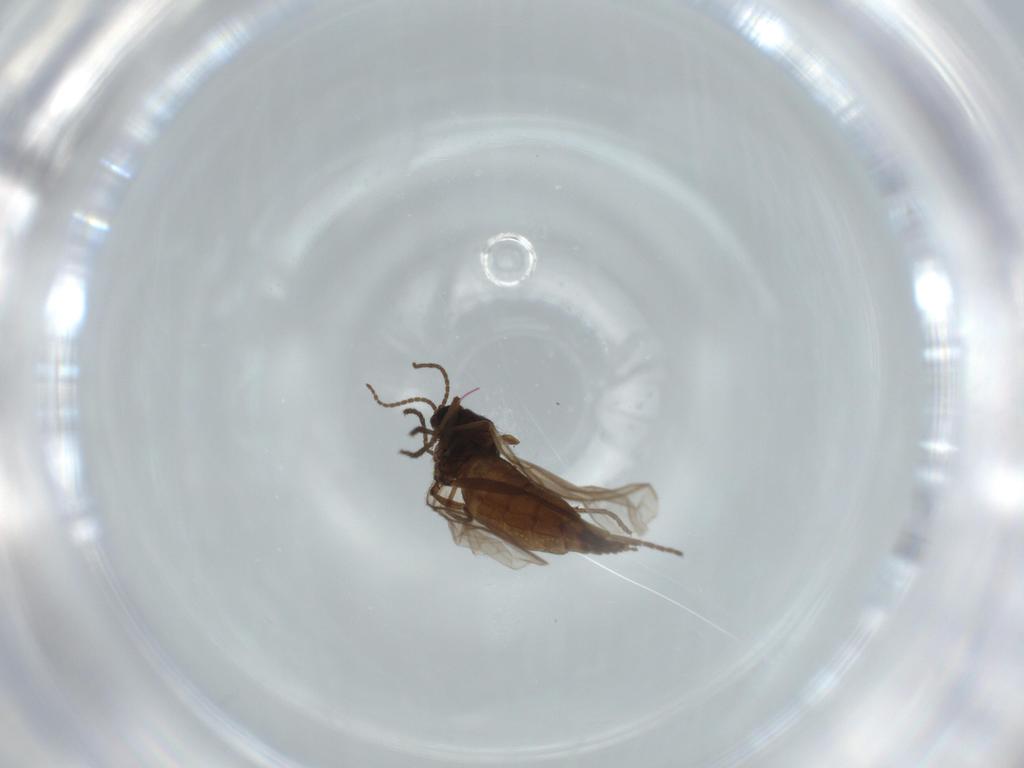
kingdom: Animalia
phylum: Arthropoda
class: Insecta
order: Diptera
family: Sciaridae
